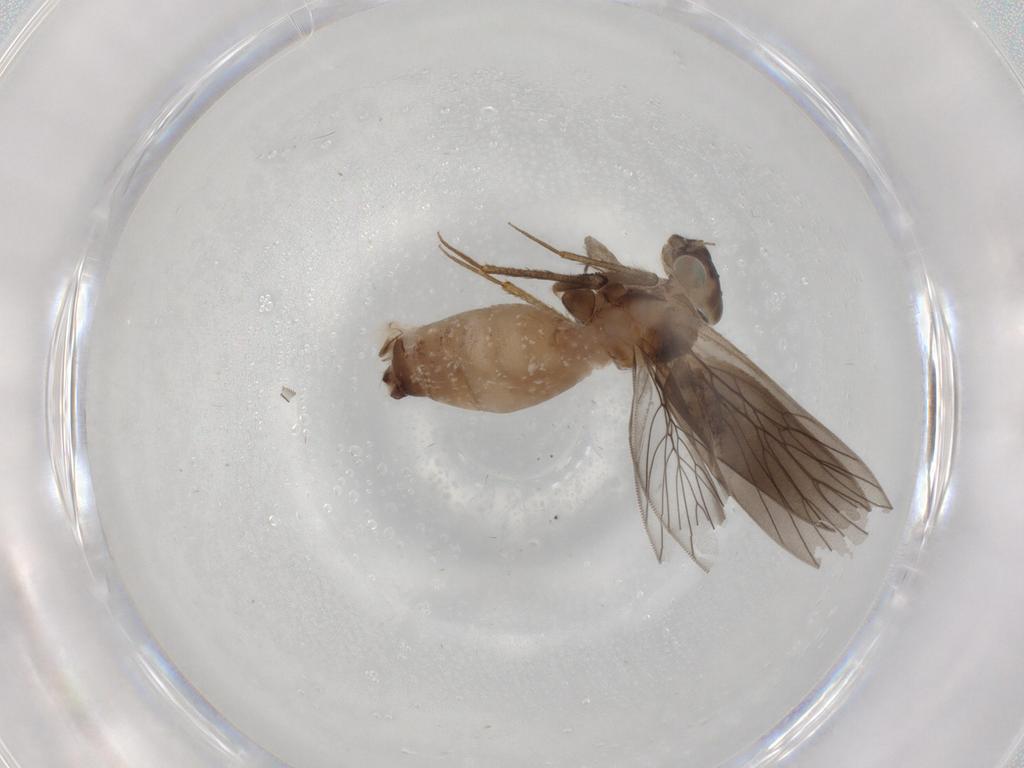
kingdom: Animalia
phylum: Arthropoda
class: Insecta
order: Psocodea
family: Lepidopsocidae
